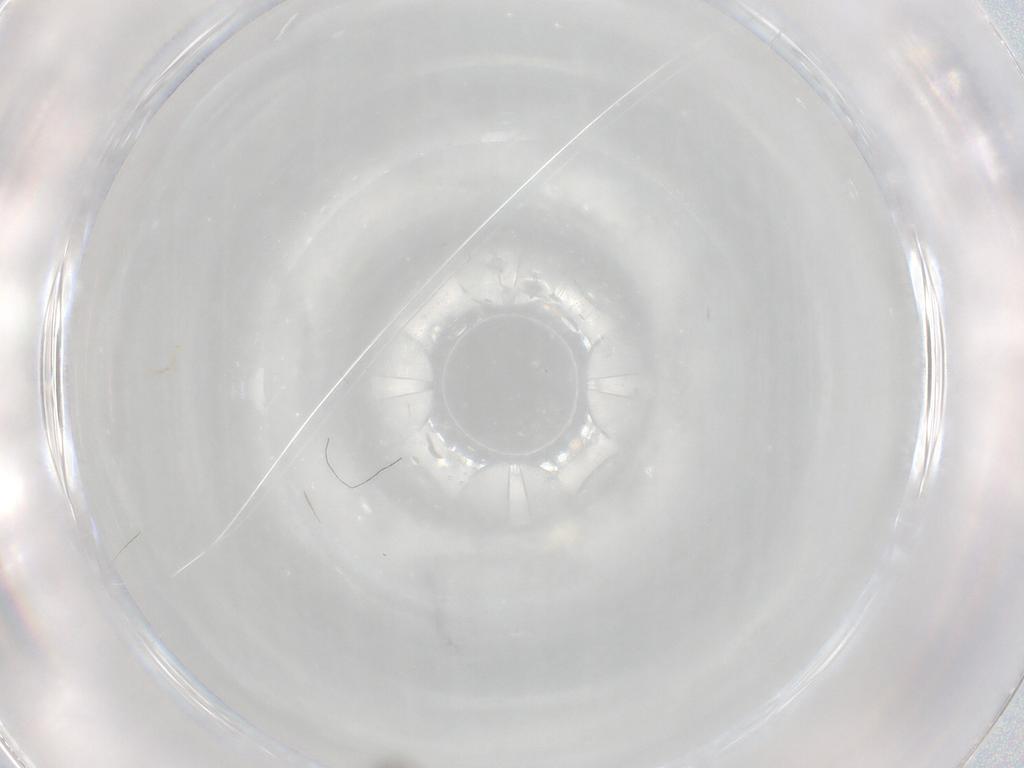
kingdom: Animalia
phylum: Arthropoda
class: Insecta
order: Hymenoptera
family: Mymaridae
